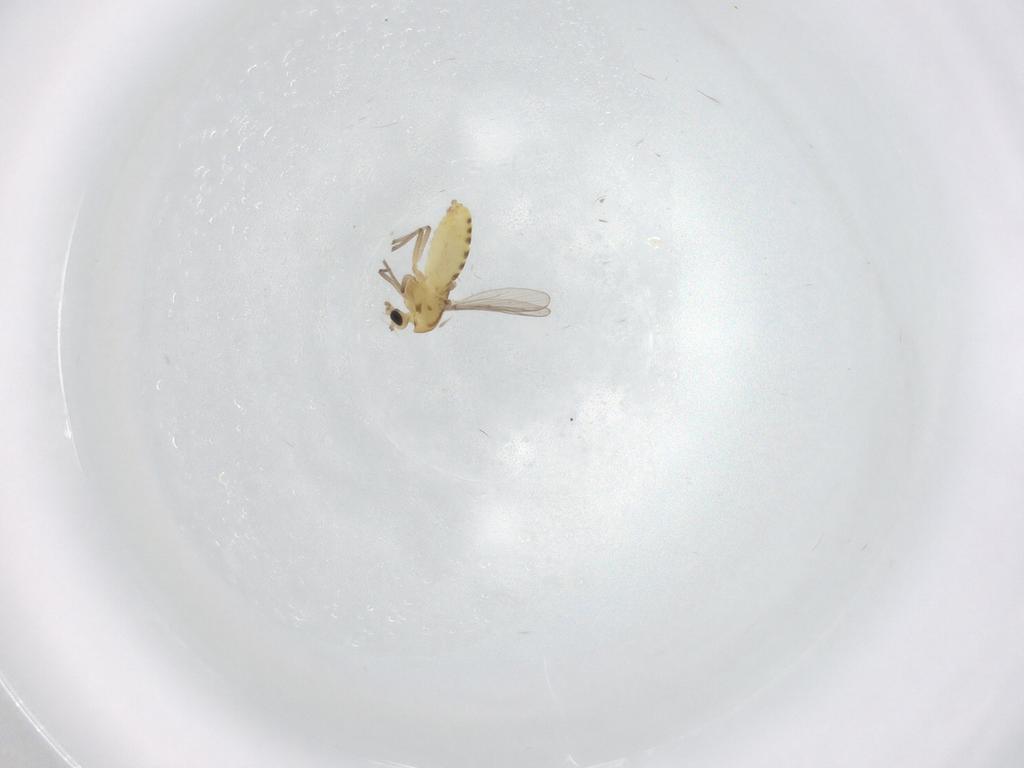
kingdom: Animalia
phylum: Arthropoda
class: Insecta
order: Diptera
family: Chironomidae
